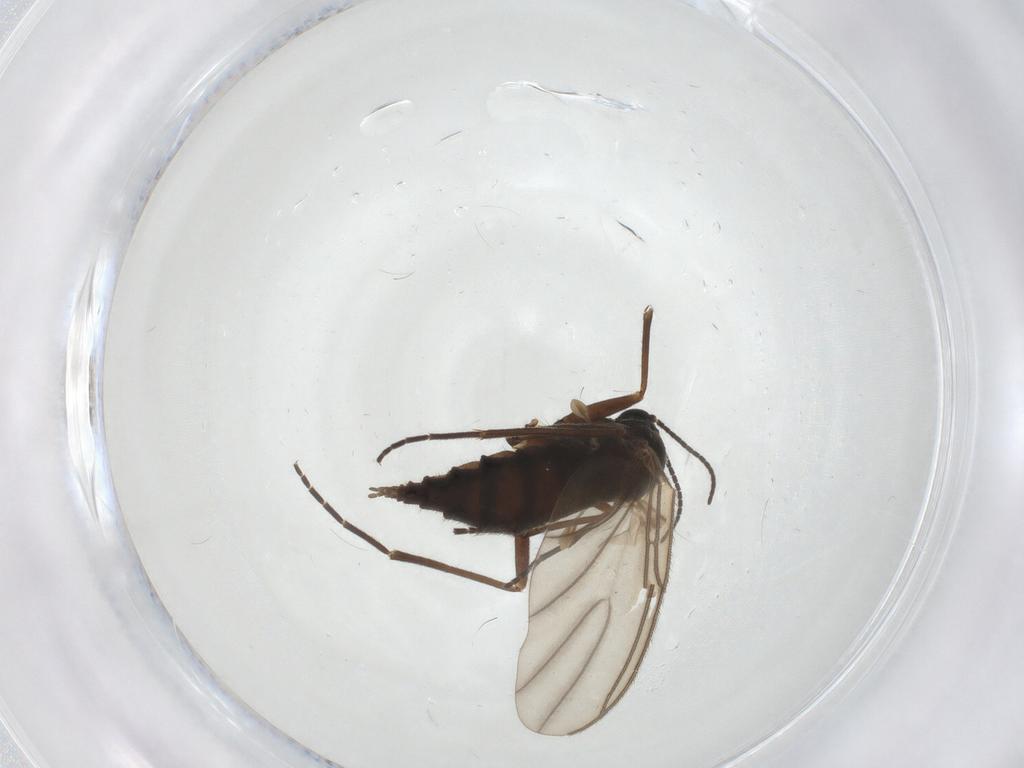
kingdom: Animalia
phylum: Arthropoda
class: Insecta
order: Diptera
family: Sciaridae
